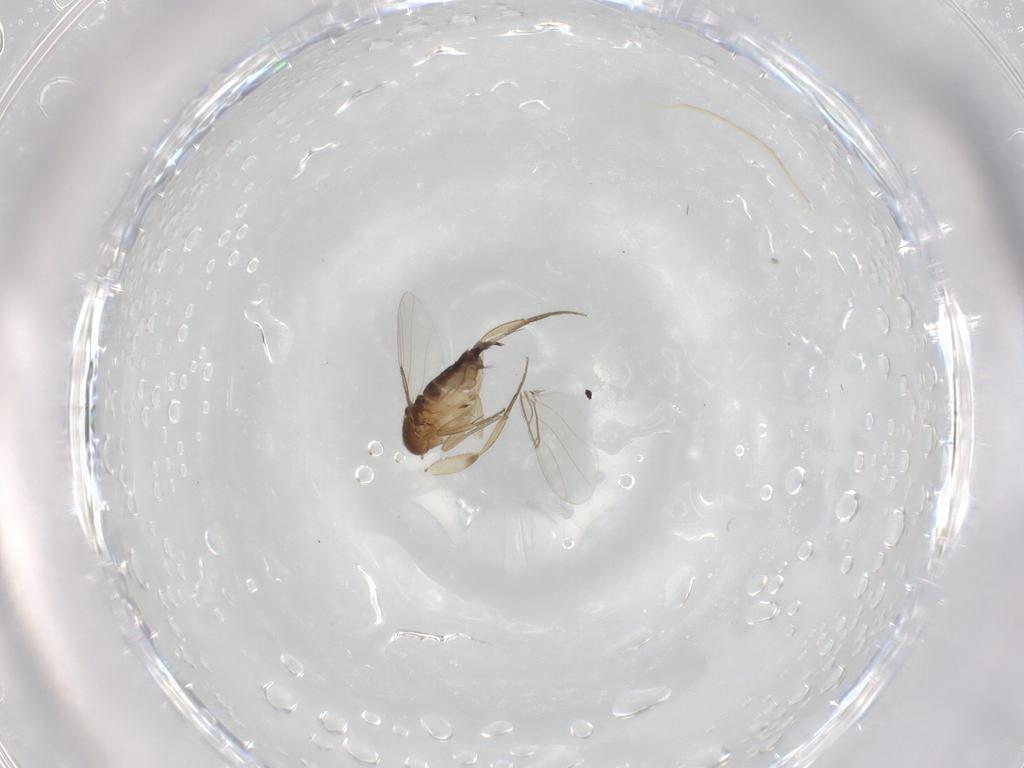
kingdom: Animalia
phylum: Arthropoda
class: Insecta
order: Diptera
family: Phoridae
